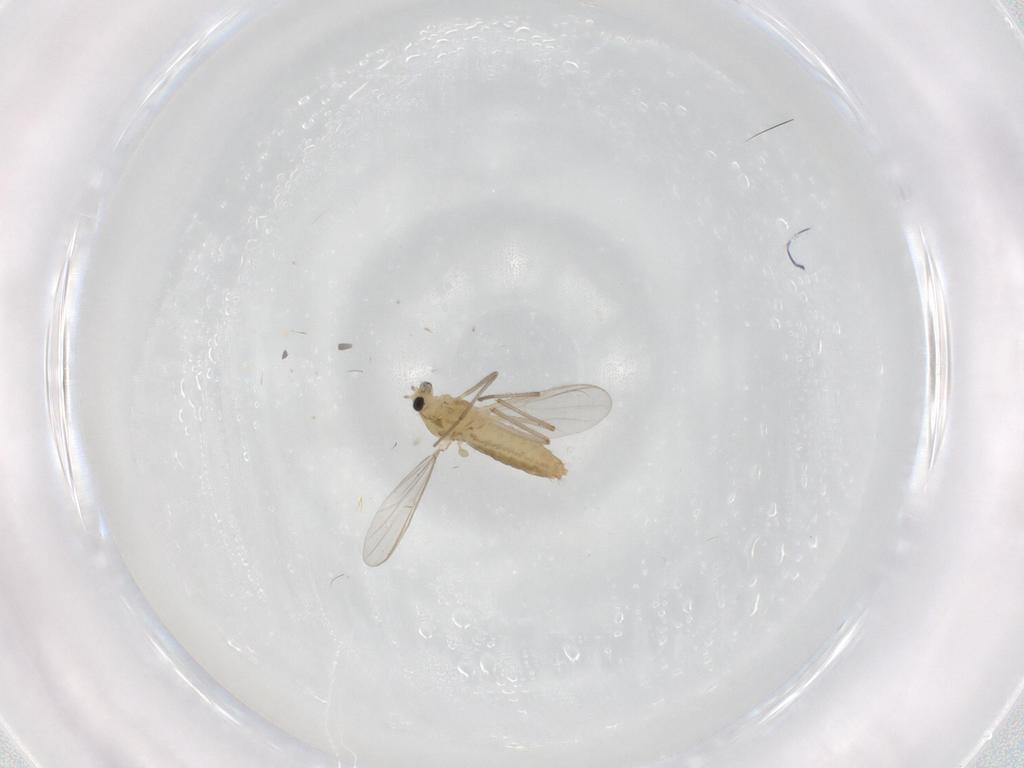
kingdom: Animalia
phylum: Arthropoda
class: Insecta
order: Diptera
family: Chironomidae
